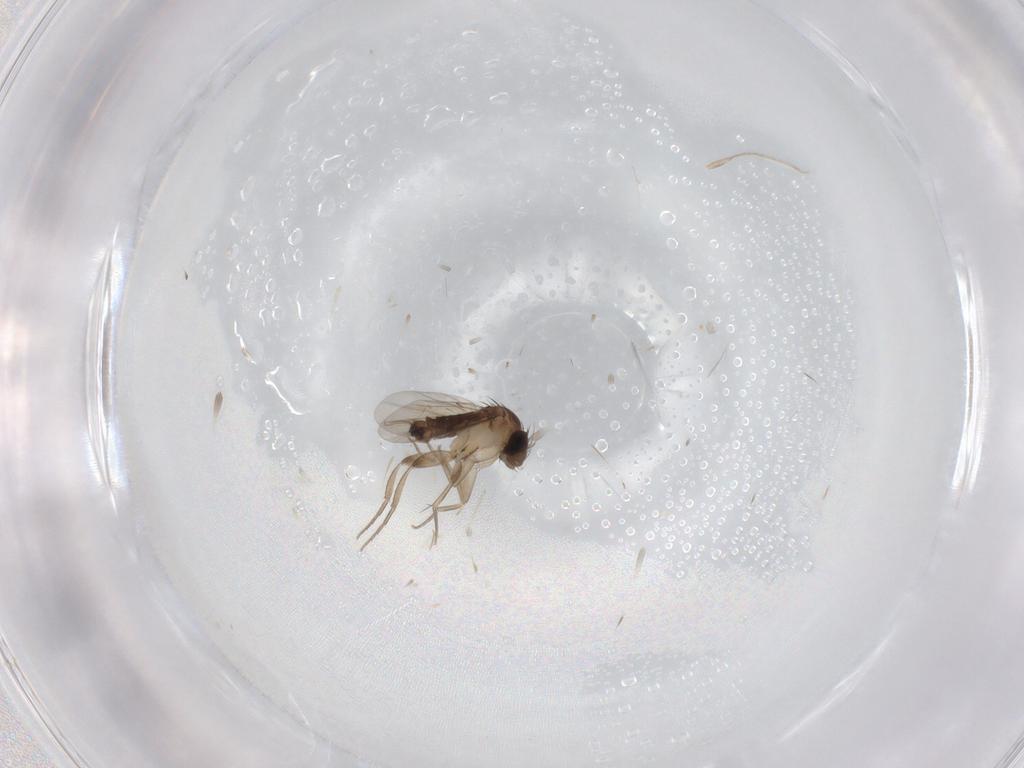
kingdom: Animalia
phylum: Arthropoda
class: Insecta
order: Diptera
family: Phoridae
